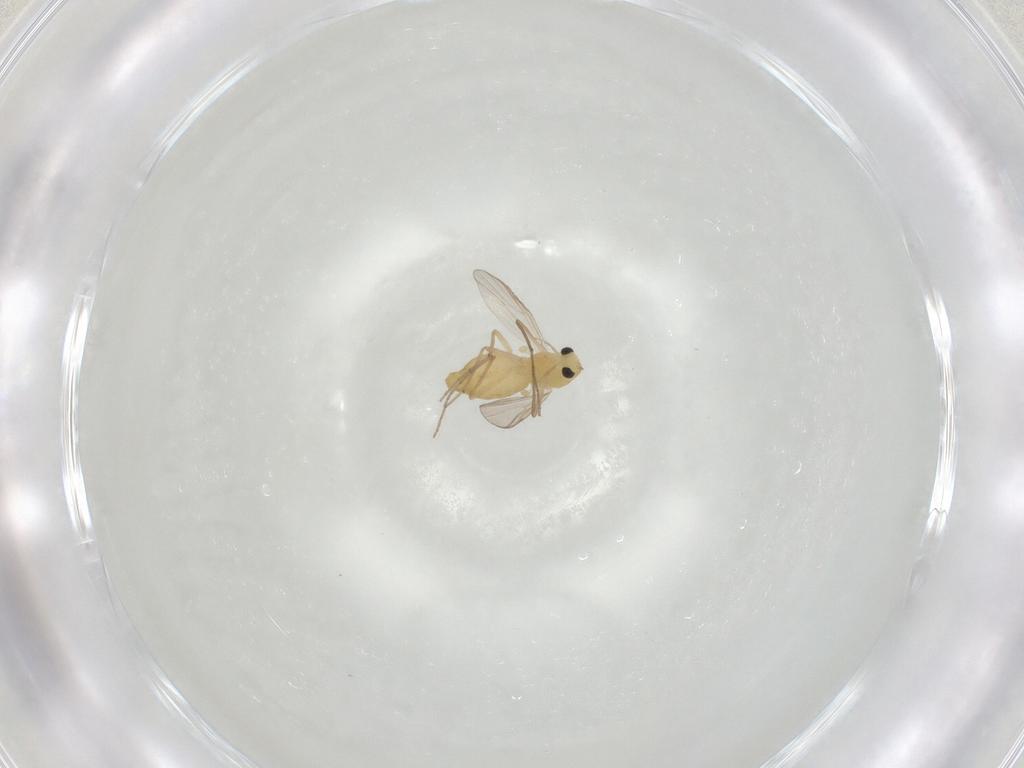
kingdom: Animalia
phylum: Arthropoda
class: Insecta
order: Diptera
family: Chironomidae
